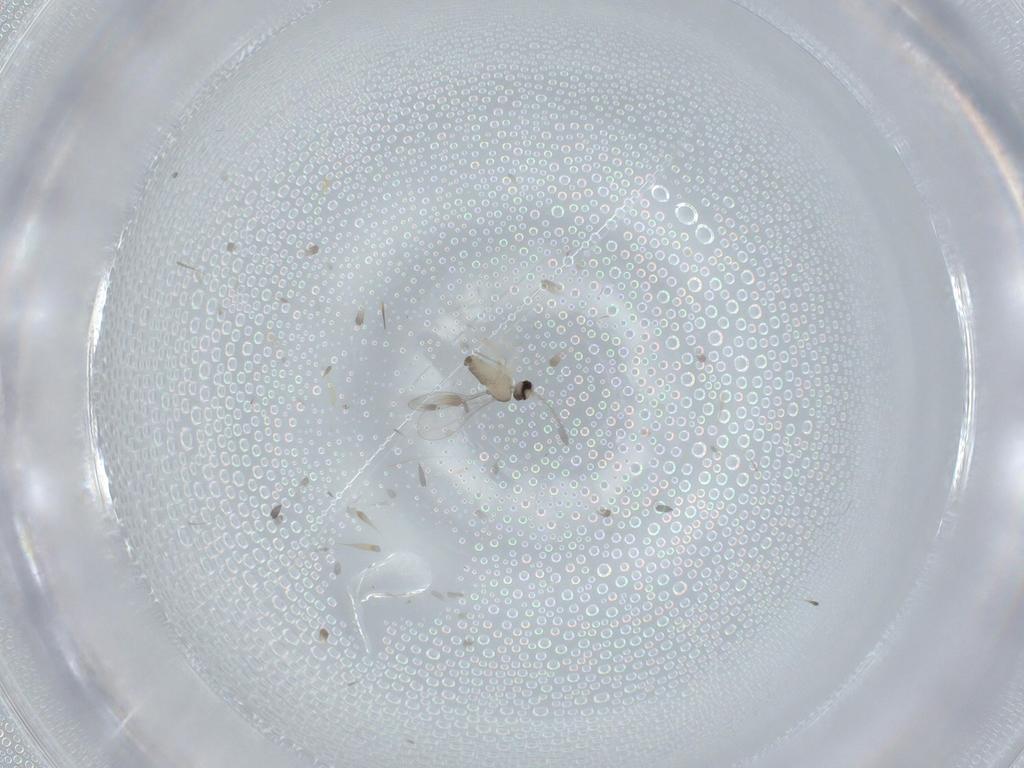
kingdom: Animalia
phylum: Arthropoda
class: Insecta
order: Diptera
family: Cecidomyiidae
